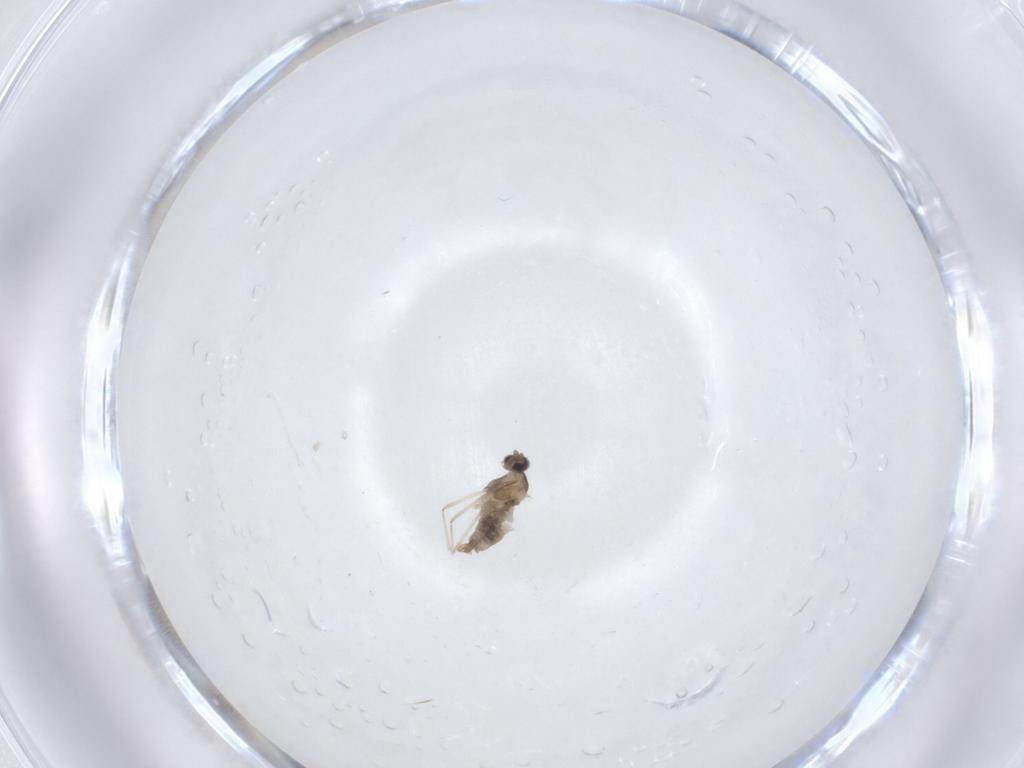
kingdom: Animalia
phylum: Arthropoda
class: Insecta
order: Diptera
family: Cecidomyiidae
